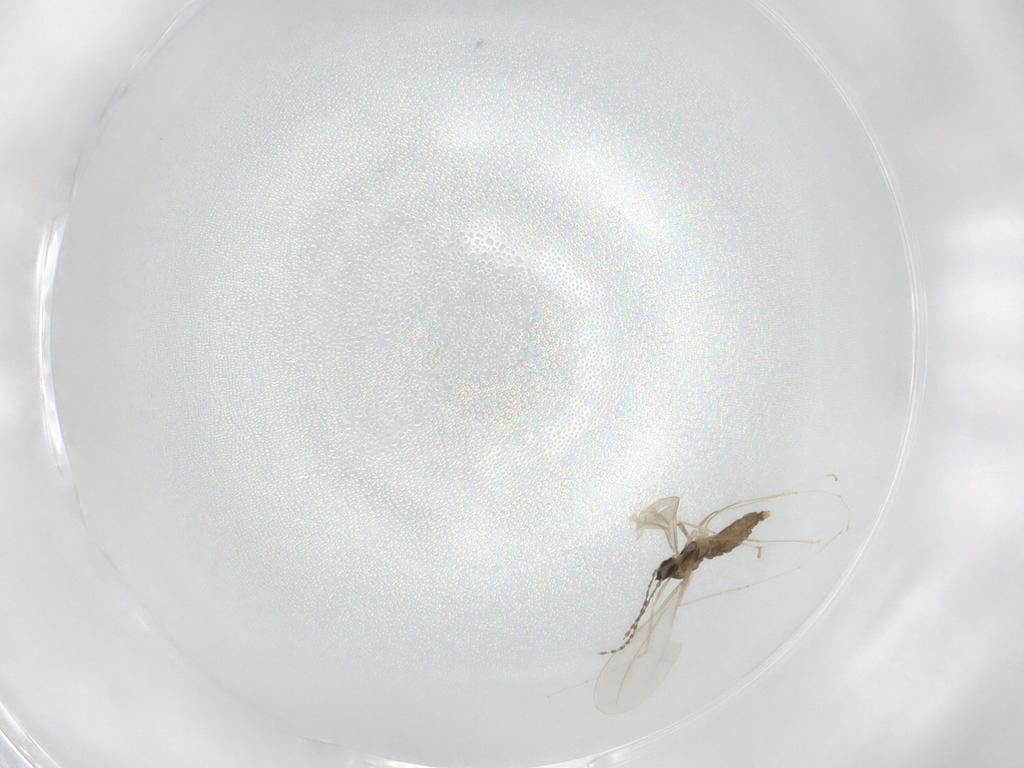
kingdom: Animalia
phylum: Arthropoda
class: Insecta
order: Diptera
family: Cecidomyiidae
